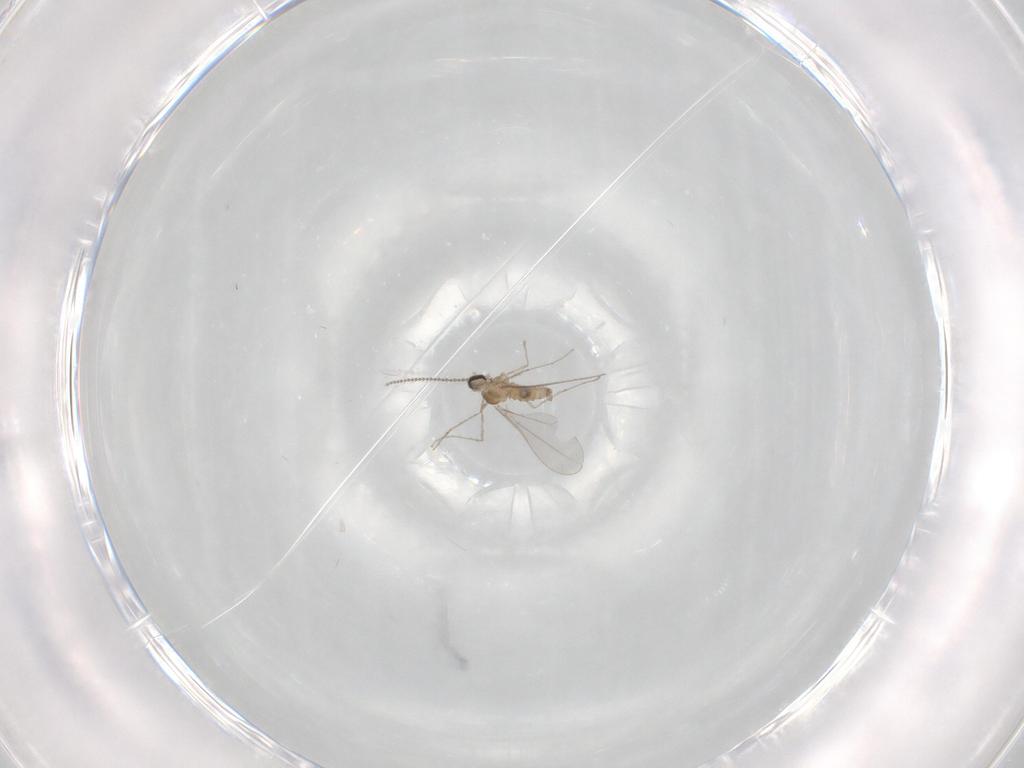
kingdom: Animalia
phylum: Arthropoda
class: Insecta
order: Diptera
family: Cecidomyiidae
